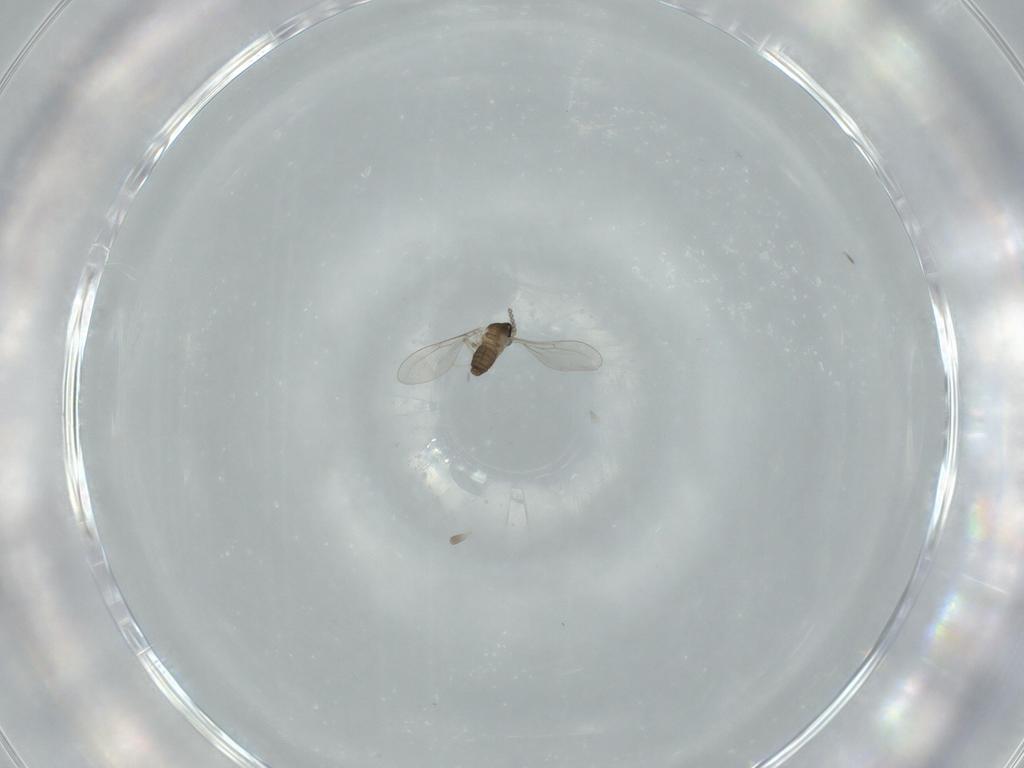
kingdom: Animalia
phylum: Arthropoda
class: Insecta
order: Diptera
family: Cecidomyiidae
